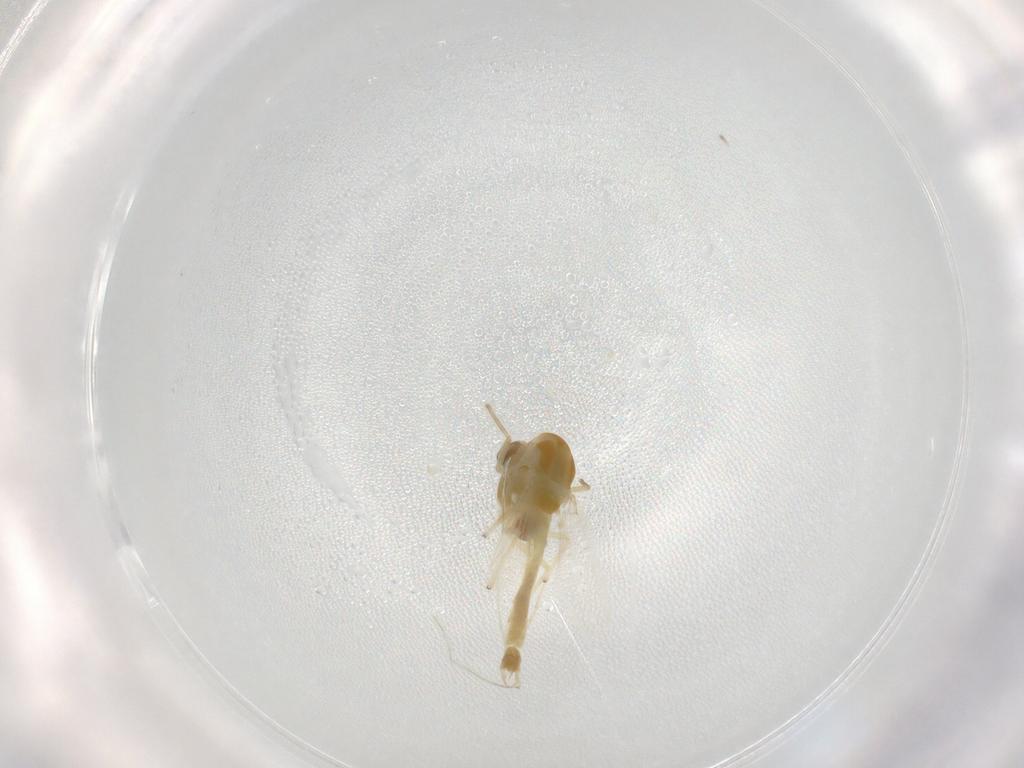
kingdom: Animalia
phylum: Arthropoda
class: Insecta
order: Diptera
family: Chironomidae
